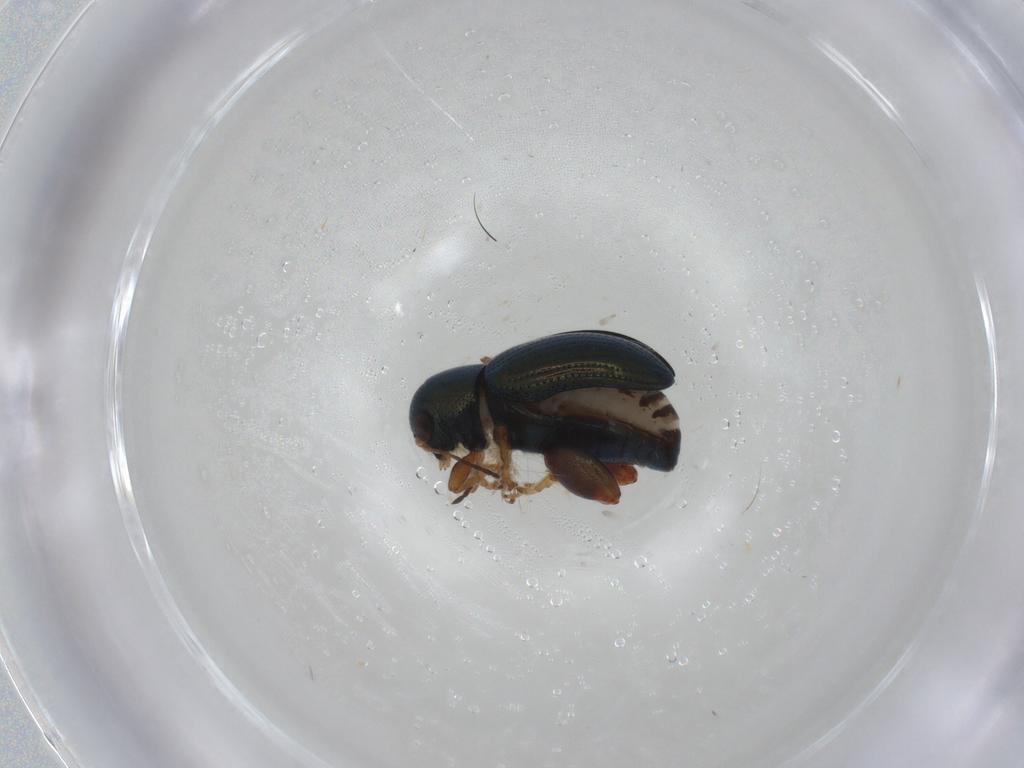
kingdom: Animalia
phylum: Arthropoda
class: Insecta
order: Coleoptera
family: Chrysomelidae
